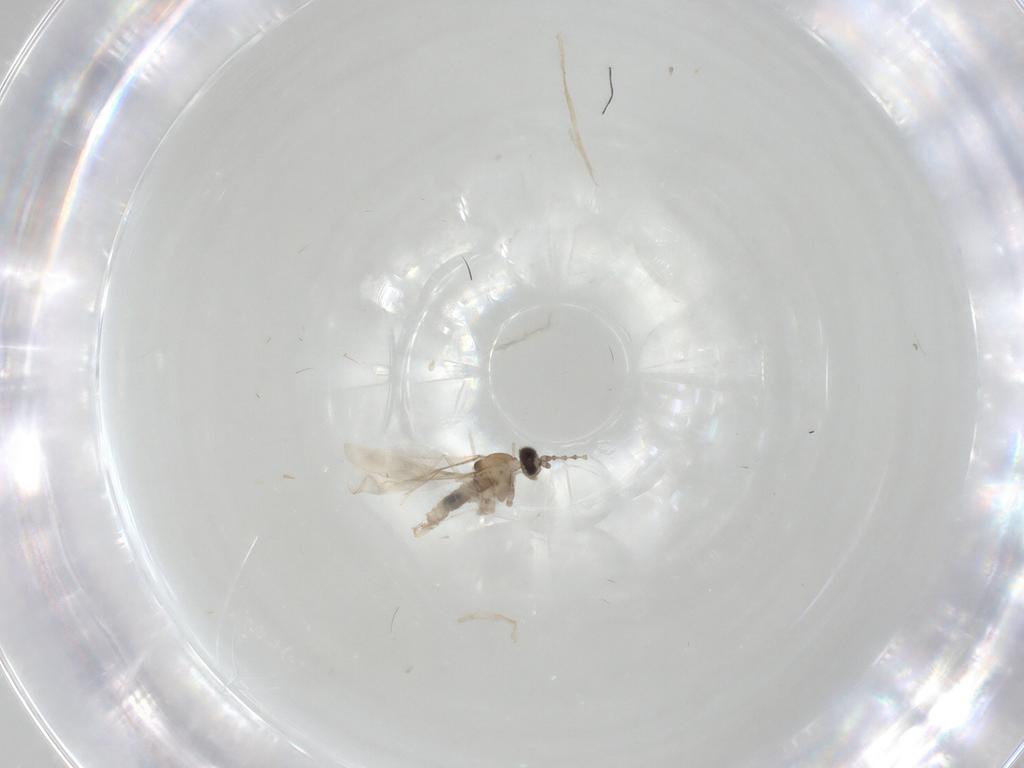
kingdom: Animalia
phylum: Arthropoda
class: Insecta
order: Diptera
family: Cecidomyiidae
